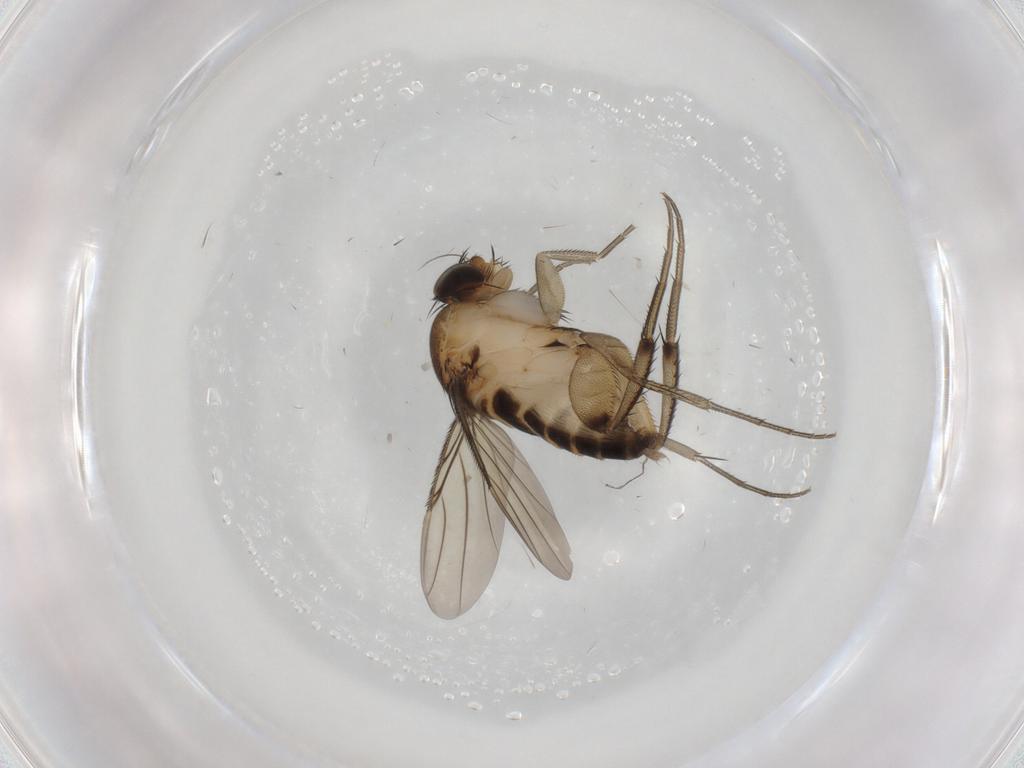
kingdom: Animalia
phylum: Arthropoda
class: Insecta
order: Diptera
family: Phoridae
